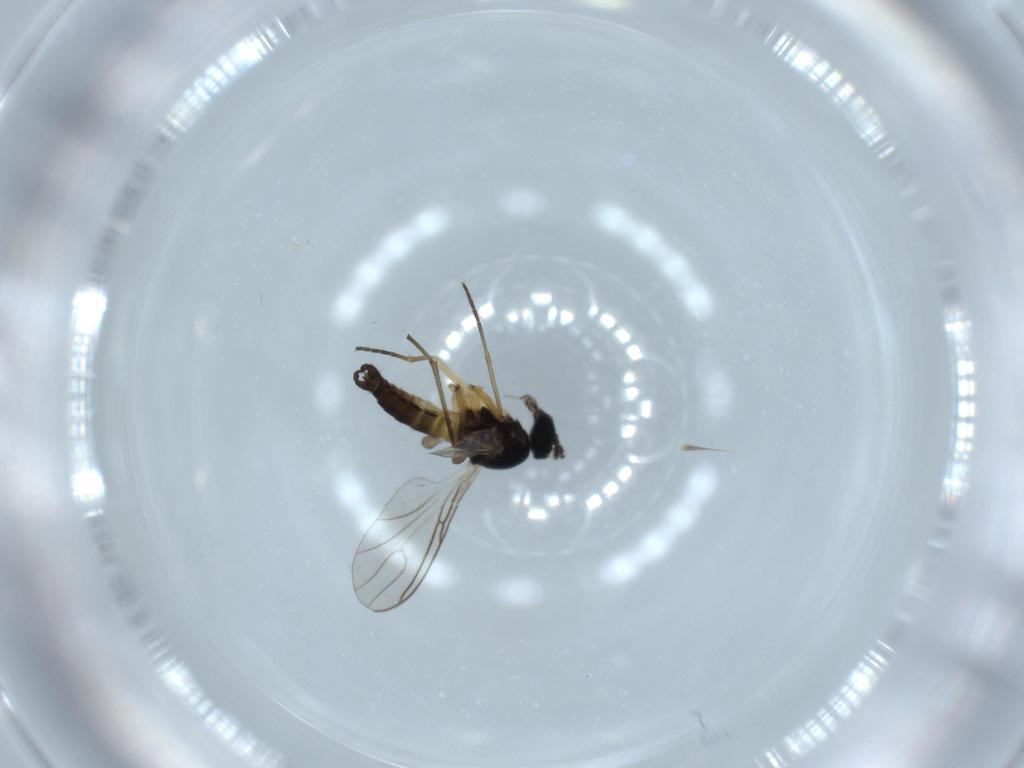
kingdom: Animalia
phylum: Arthropoda
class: Insecta
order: Diptera
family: Sciaridae
